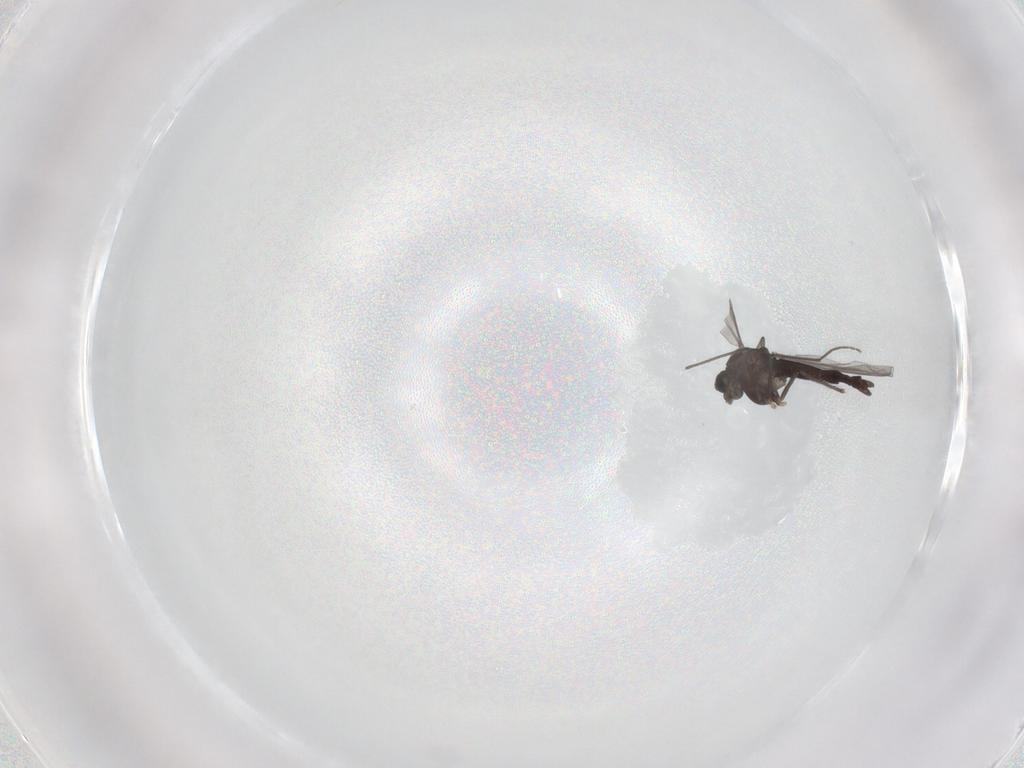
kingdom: Animalia
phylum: Arthropoda
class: Insecta
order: Diptera
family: Chironomidae
